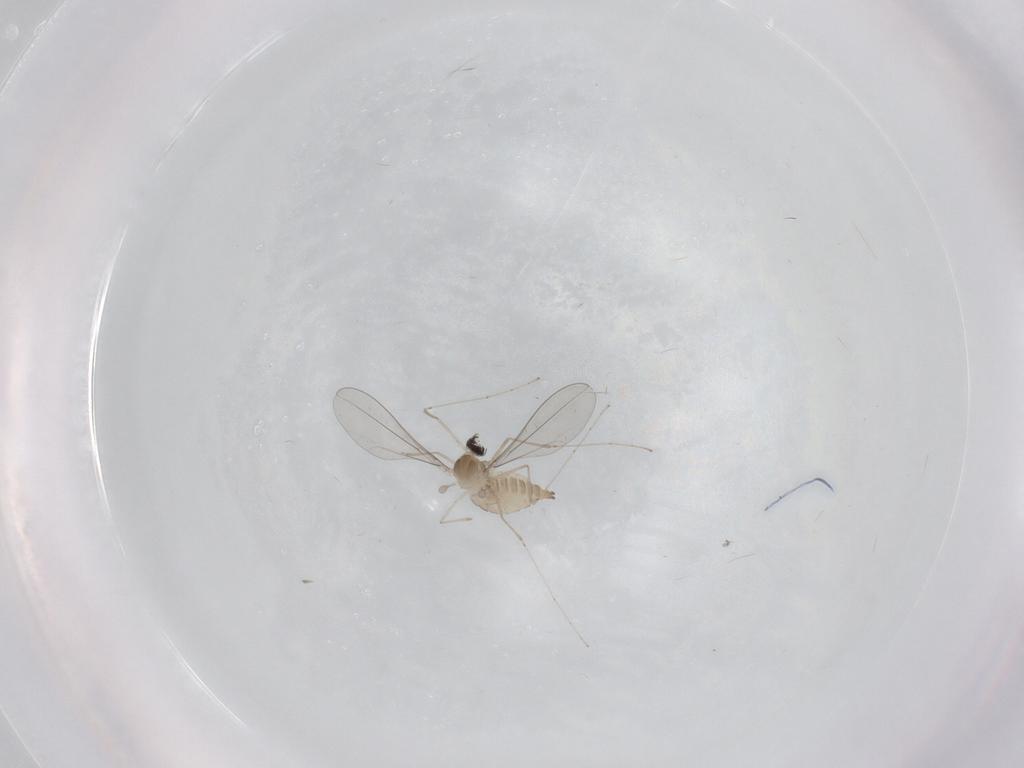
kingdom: Animalia
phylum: Arthropoda
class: Insecta
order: Diptera
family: Cecidomyiidae
